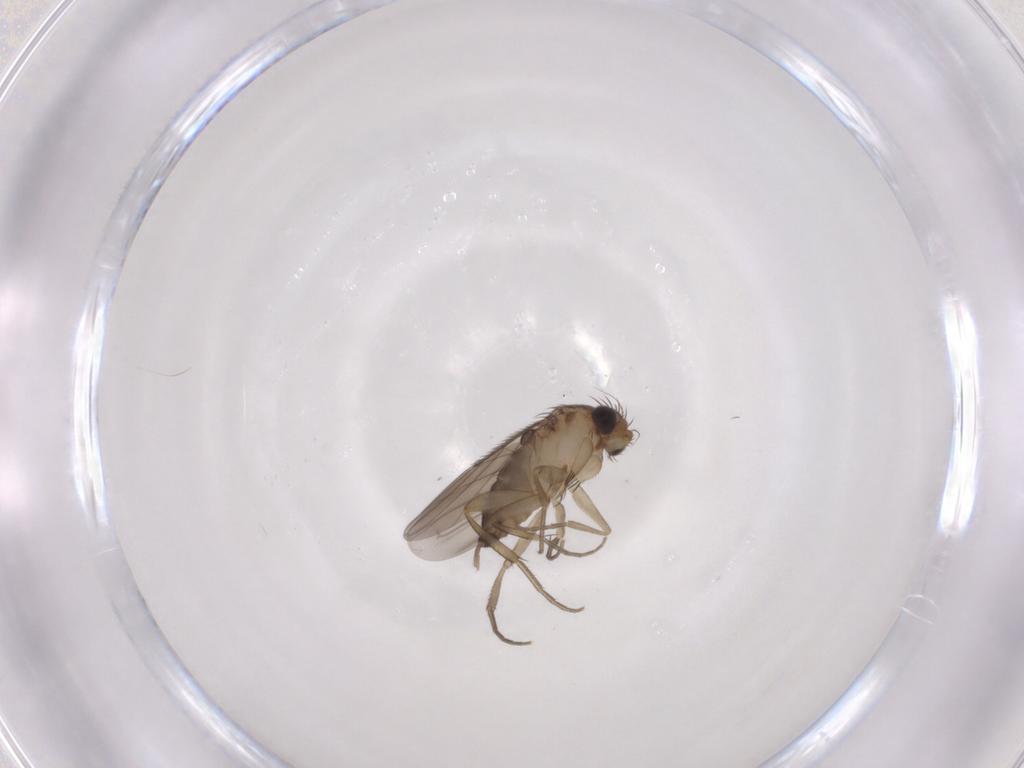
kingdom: Animalia
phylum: Arthropoda
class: Insecta
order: Diptera
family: Phoridae
